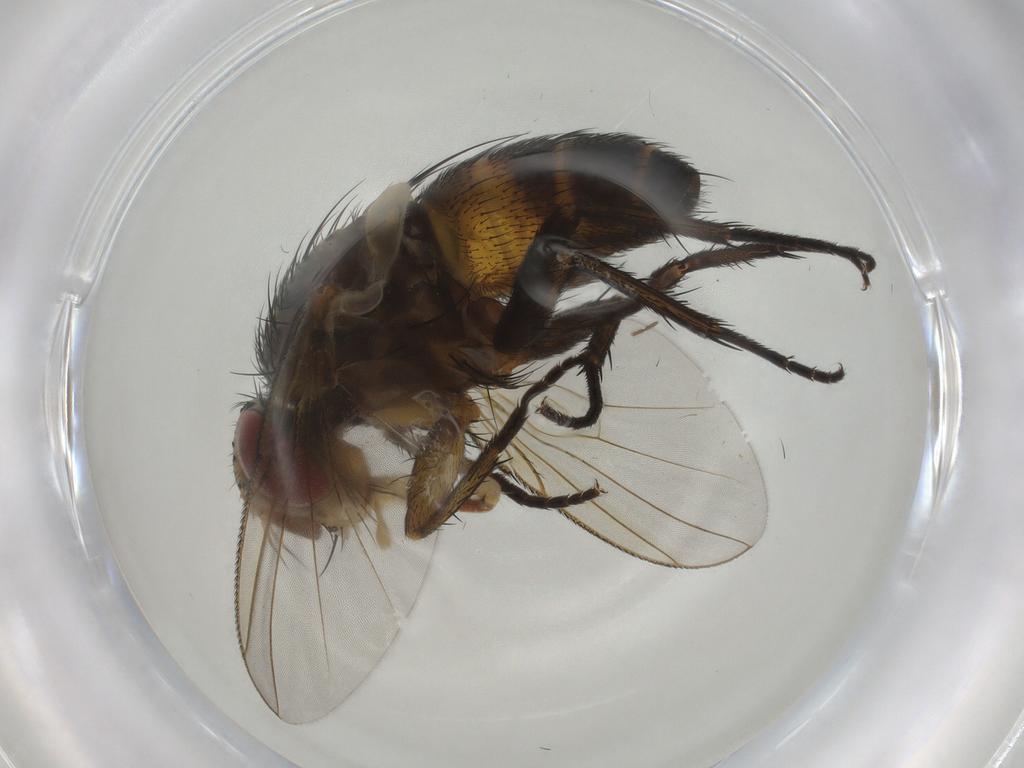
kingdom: Animalia
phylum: Arthropoda
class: Insecta
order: Diptera
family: Tachinidae
